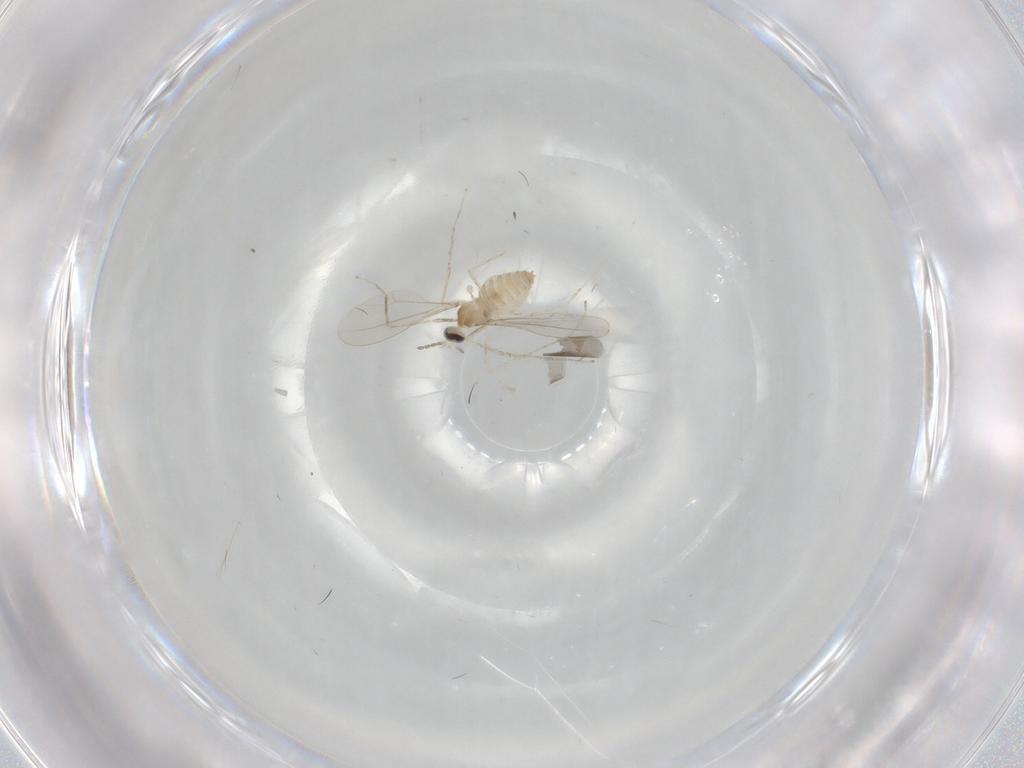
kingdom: Animalia
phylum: Arthropoda
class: Insecta
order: Diptera
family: Cecidomyiidae
